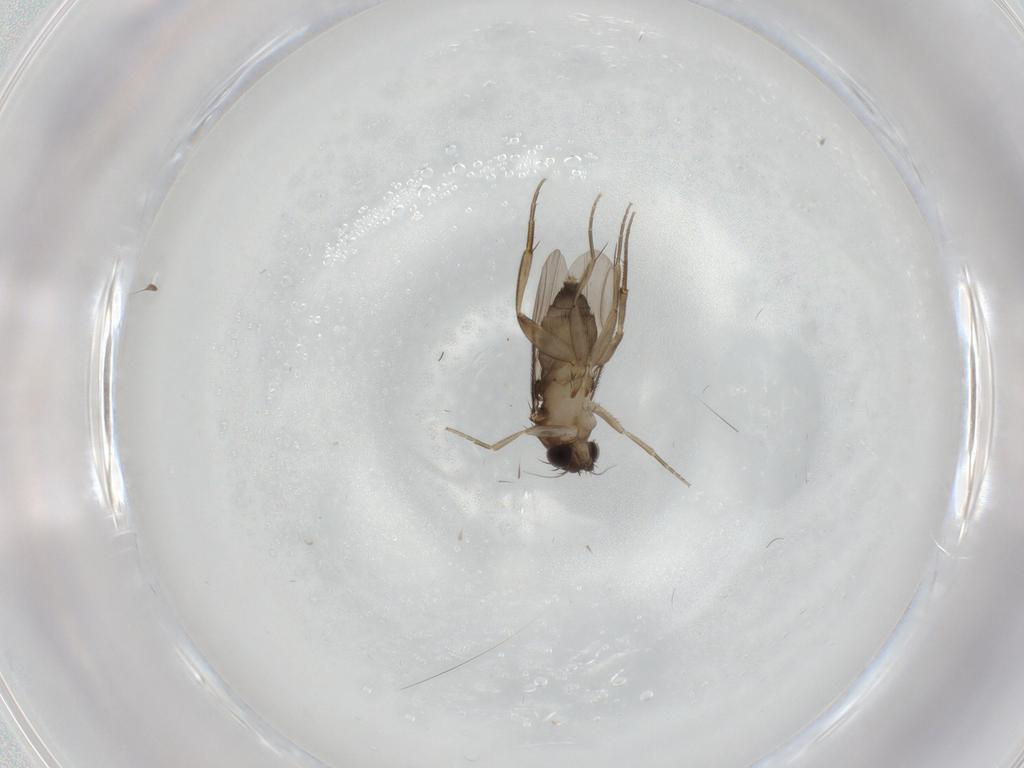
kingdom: Animalia
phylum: Arthropoda
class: Insecta
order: Diptera
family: Phoridae
